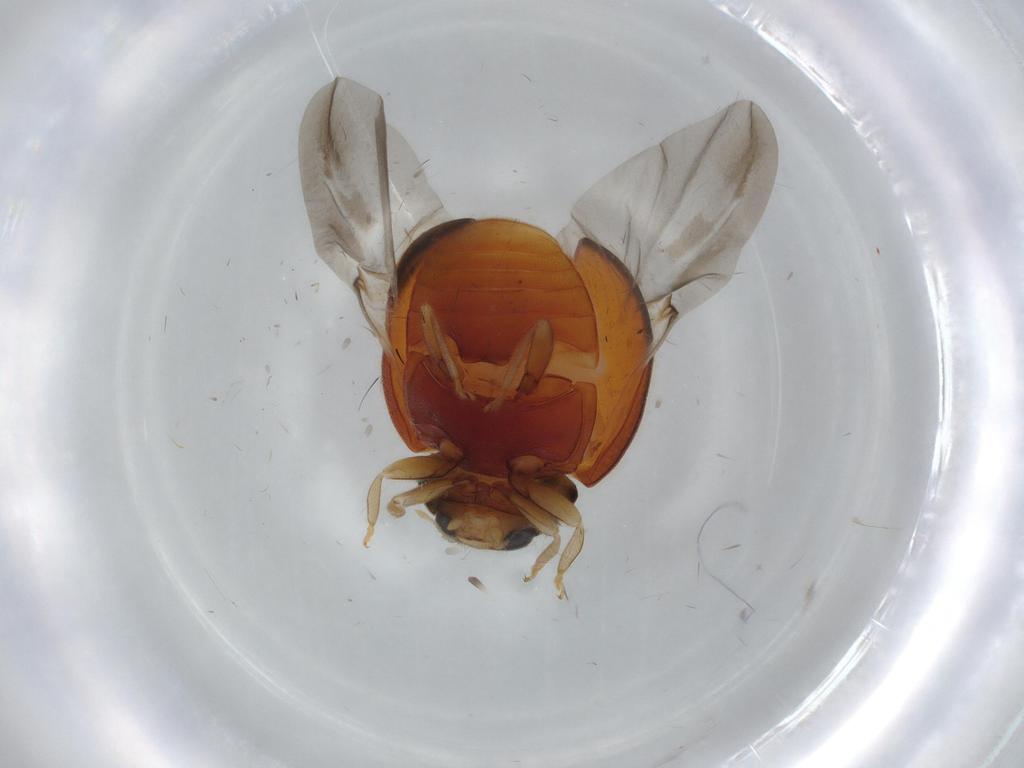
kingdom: Animalia
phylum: Arthropoda
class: Insecta
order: Coleoptera
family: Coccinellidae
